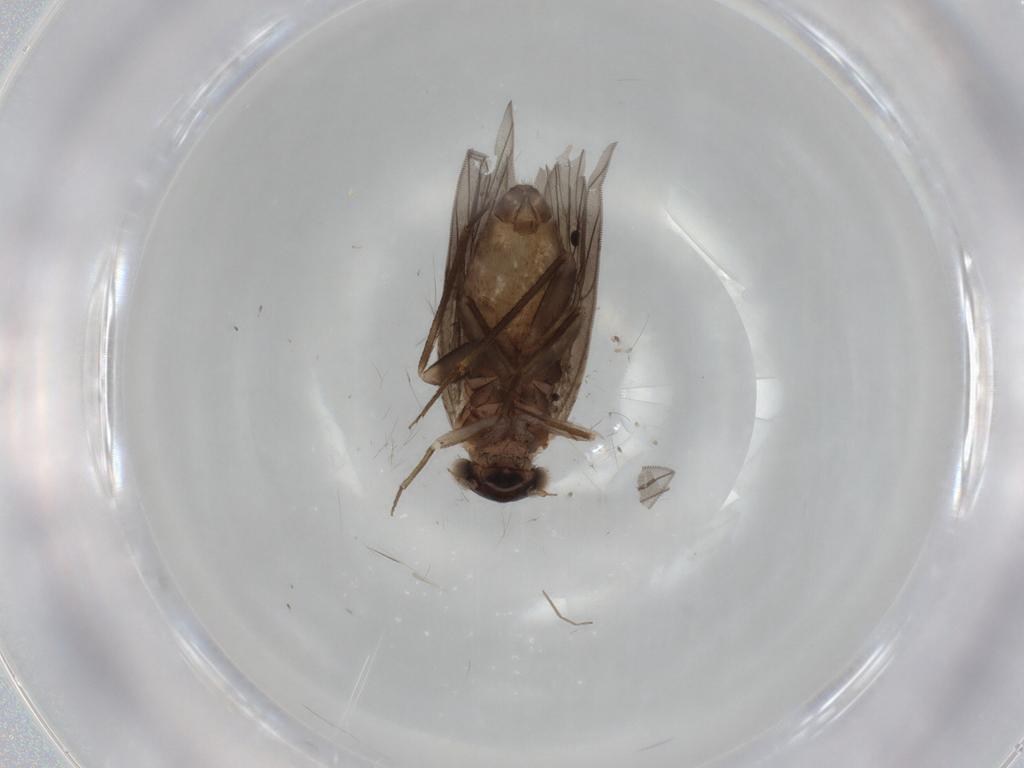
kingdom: Animalia
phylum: Arthropoda
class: Insecta
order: Psocodea
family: Lepidopsocidae
